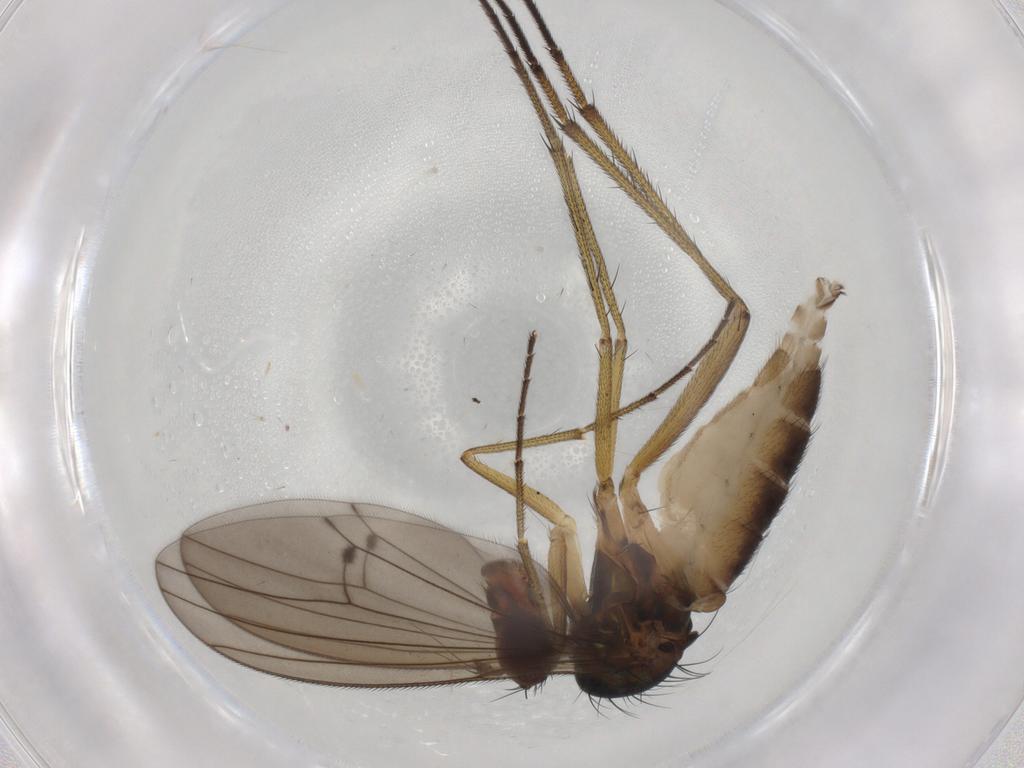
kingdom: Animalia
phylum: Arthropoda
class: Insecta
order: Diptera
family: Dolichopodidae
